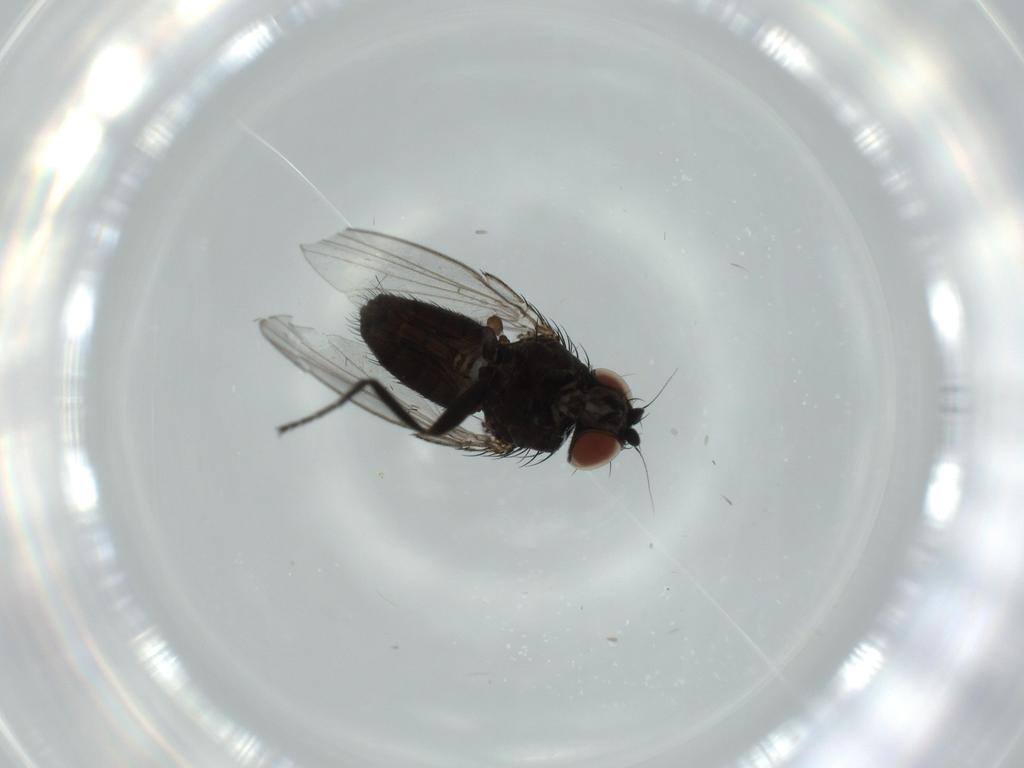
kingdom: Animalia
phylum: Arthropoda
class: Insecta
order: Diptera
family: Milichiidae
